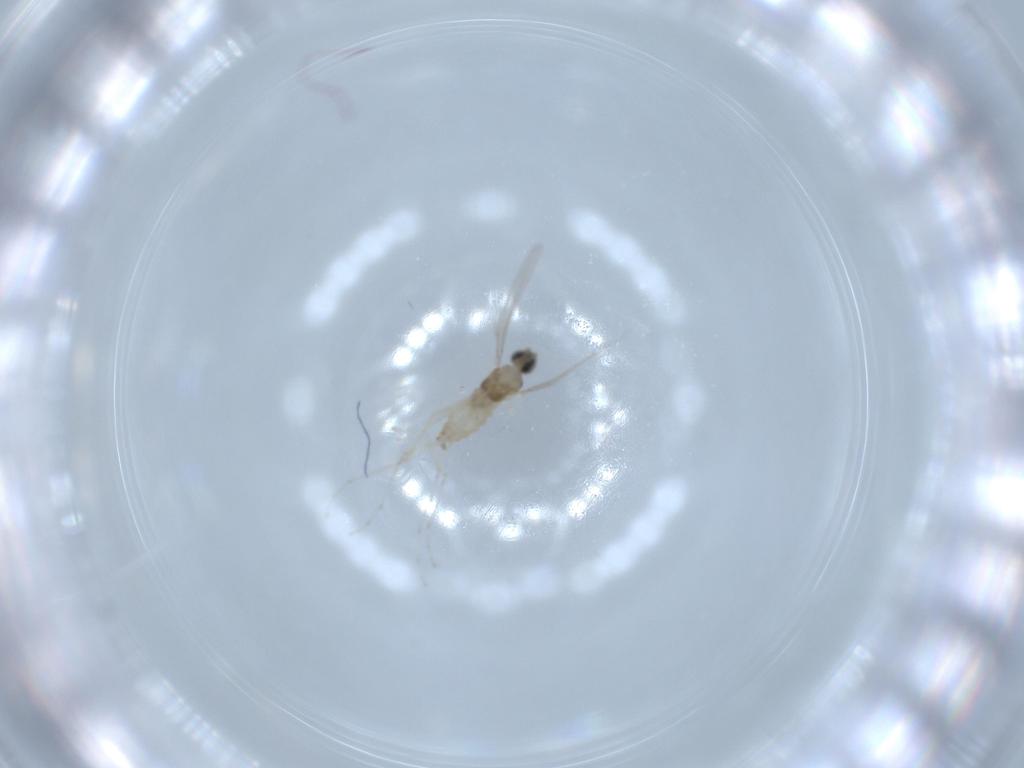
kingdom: Animalia
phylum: Arthropoda
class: Insecta
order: Diptera
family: Cecidomyiidae
